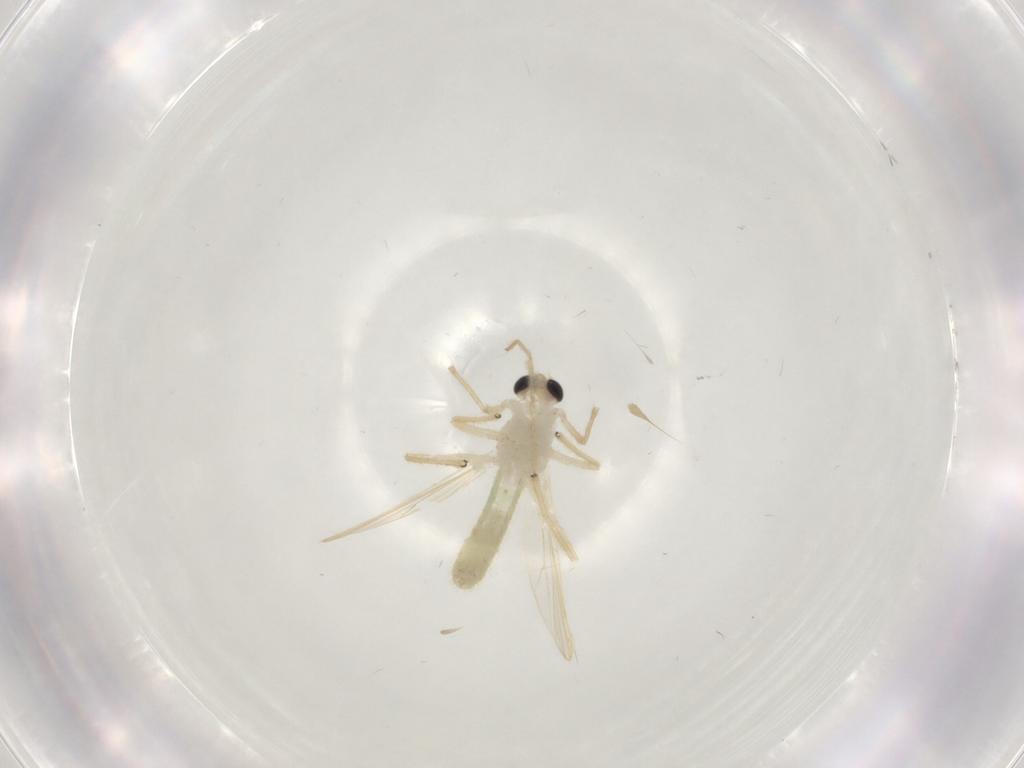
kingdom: Animalia
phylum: Arthropoda
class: Insecta
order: Diptera
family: Chironomidae
